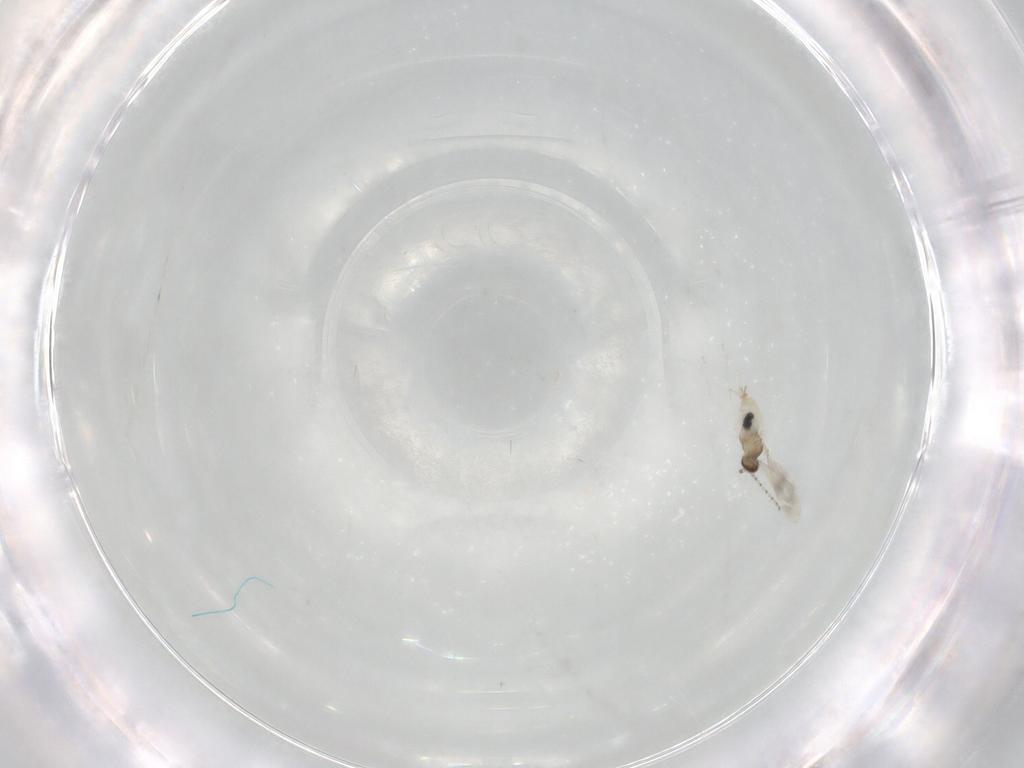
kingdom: Animalia
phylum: Arthropoda
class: Insecta
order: Diptera
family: Cecidomyiidae
